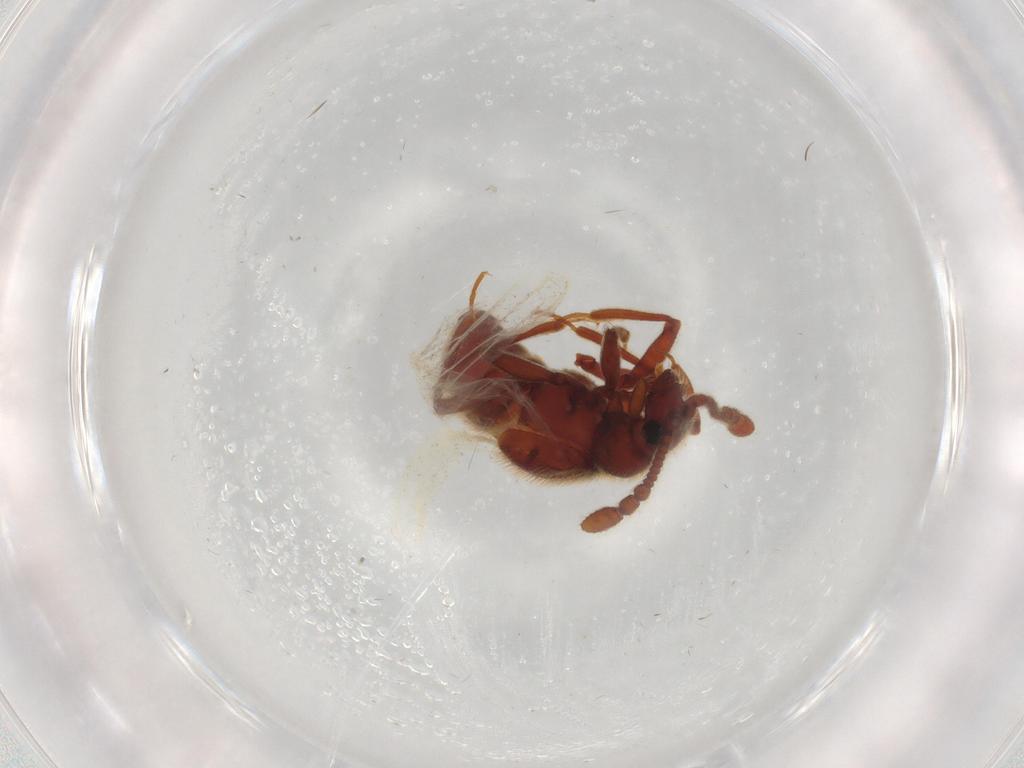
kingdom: Animalia
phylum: Arthropoda
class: Insecta
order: Coleoptera
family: Staphylinidae
